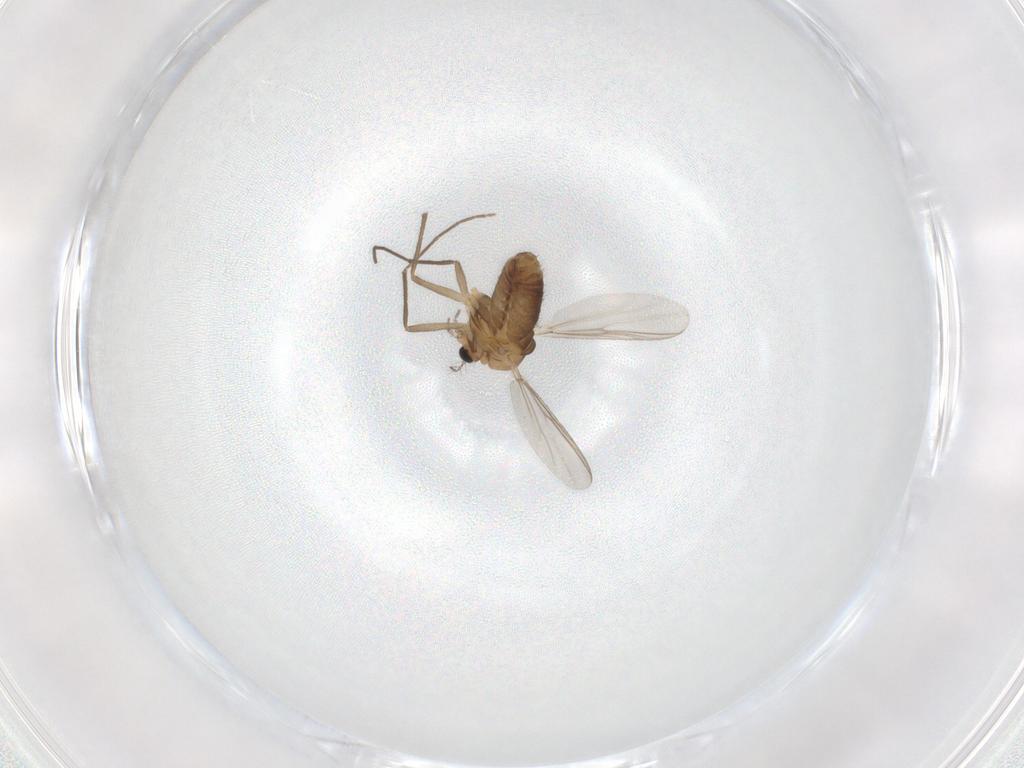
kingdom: Animalia
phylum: Arthropoda
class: Insecta
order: Diptera
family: Chironomidae
